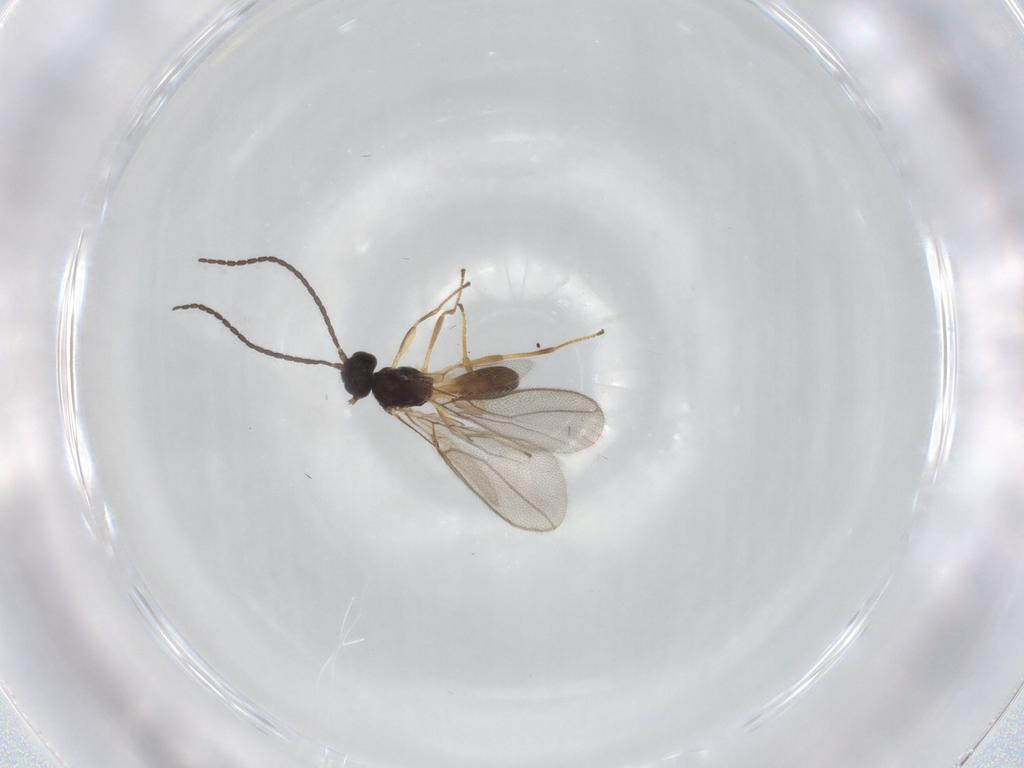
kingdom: Animalia
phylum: Arthropoda
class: Insecta
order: Hymenoptera
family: Braconidae
